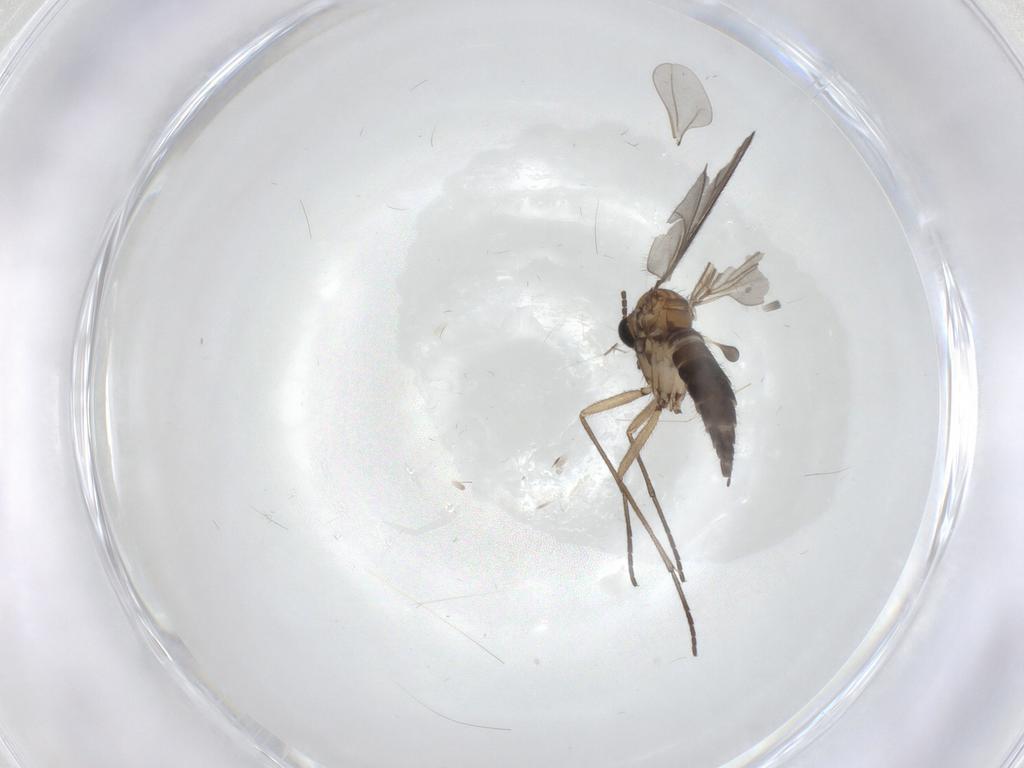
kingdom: Animalia
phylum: Arthropoda
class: Insecta
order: Diptera
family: Sciaridae
